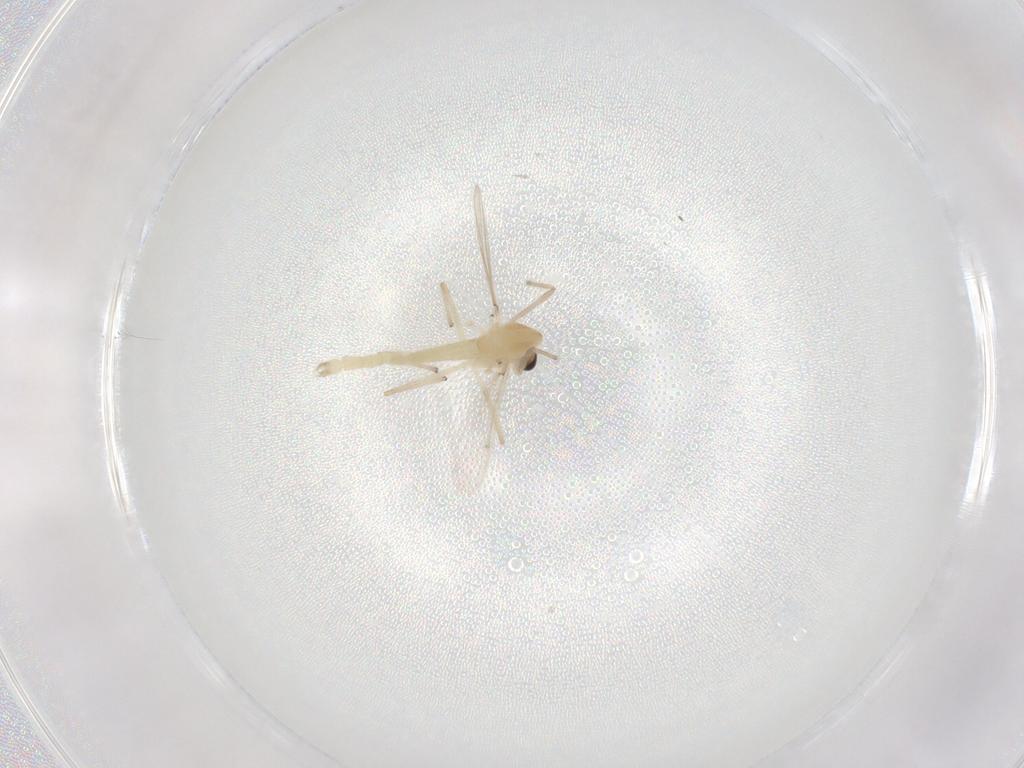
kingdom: Animalia
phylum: Arthropoda
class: Insecta
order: Diptera
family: Chironomidae
